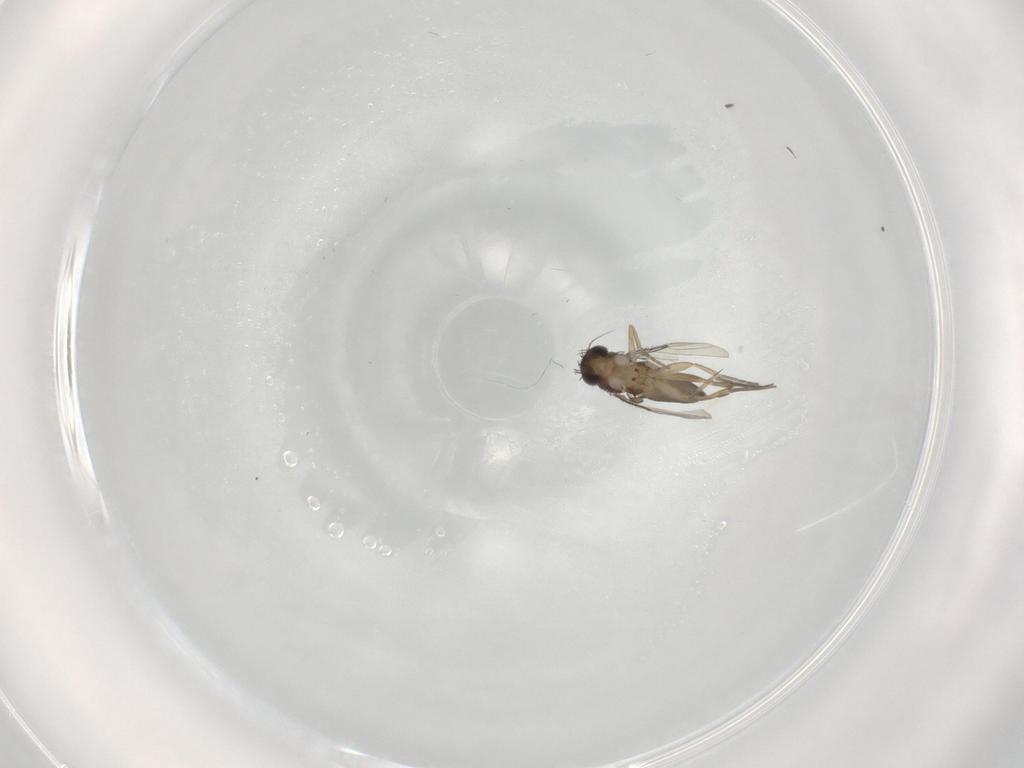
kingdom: Animalia
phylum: Arthropoda
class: Insecta
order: Diptera
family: Phoridae
